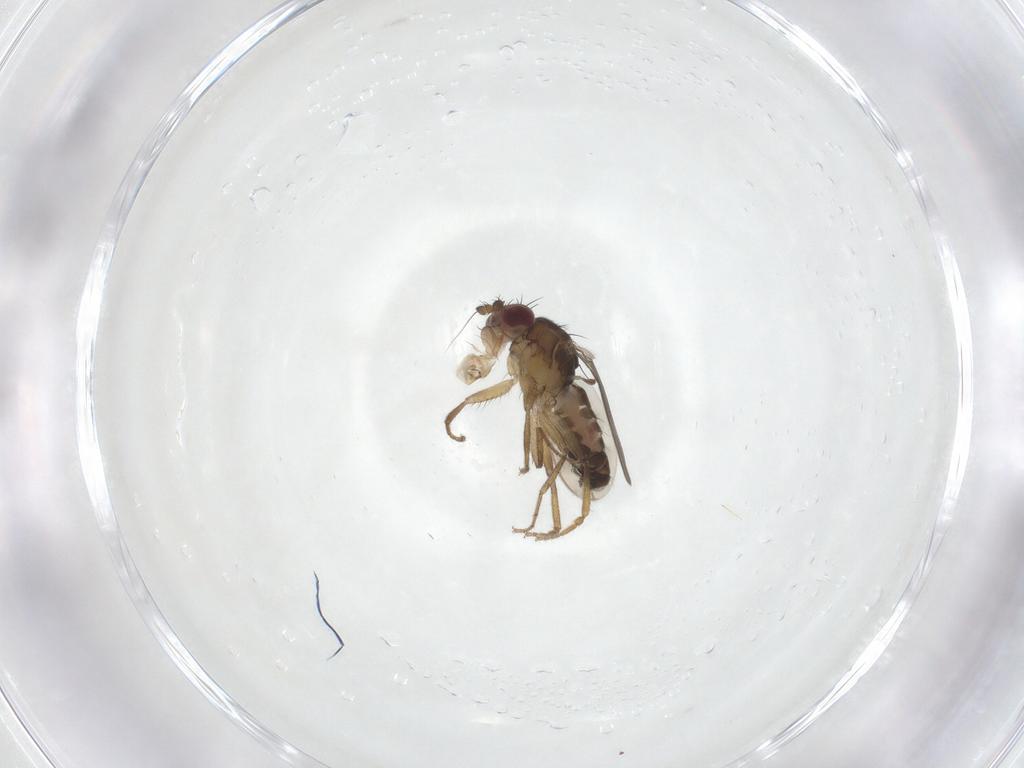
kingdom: Animalia
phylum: Arthropoda
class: Insecta
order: Diptera
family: Sphaeroceridae
